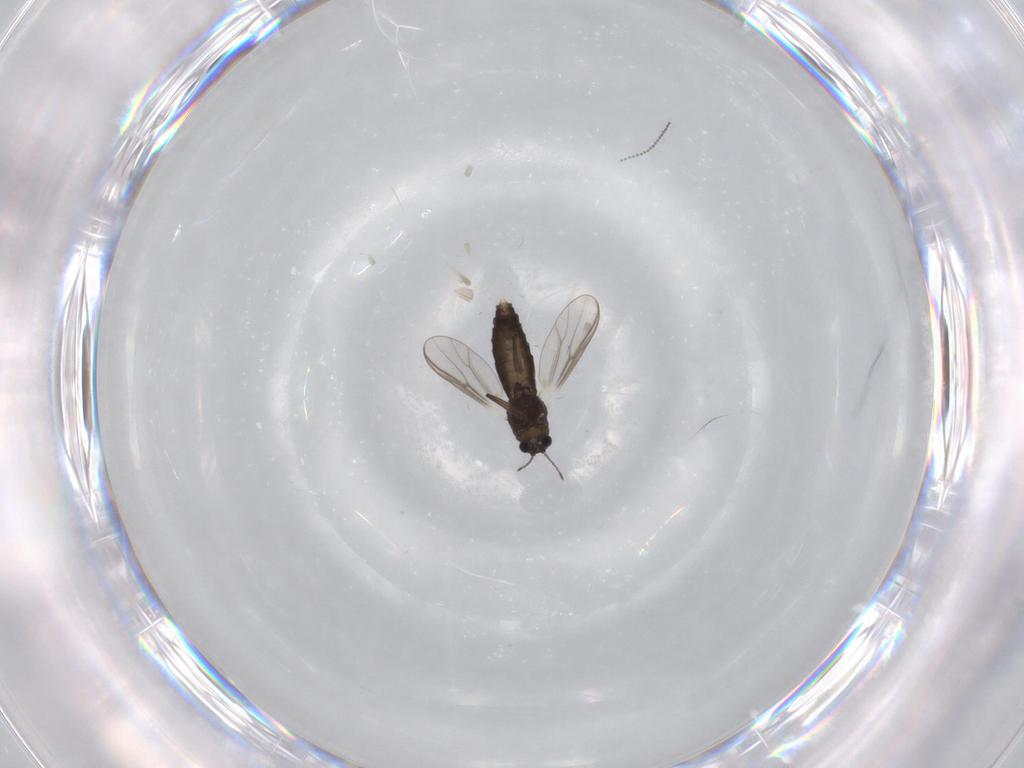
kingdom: Animalia
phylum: Arthropoda
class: Insecta
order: Diptera
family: Chironomidae
